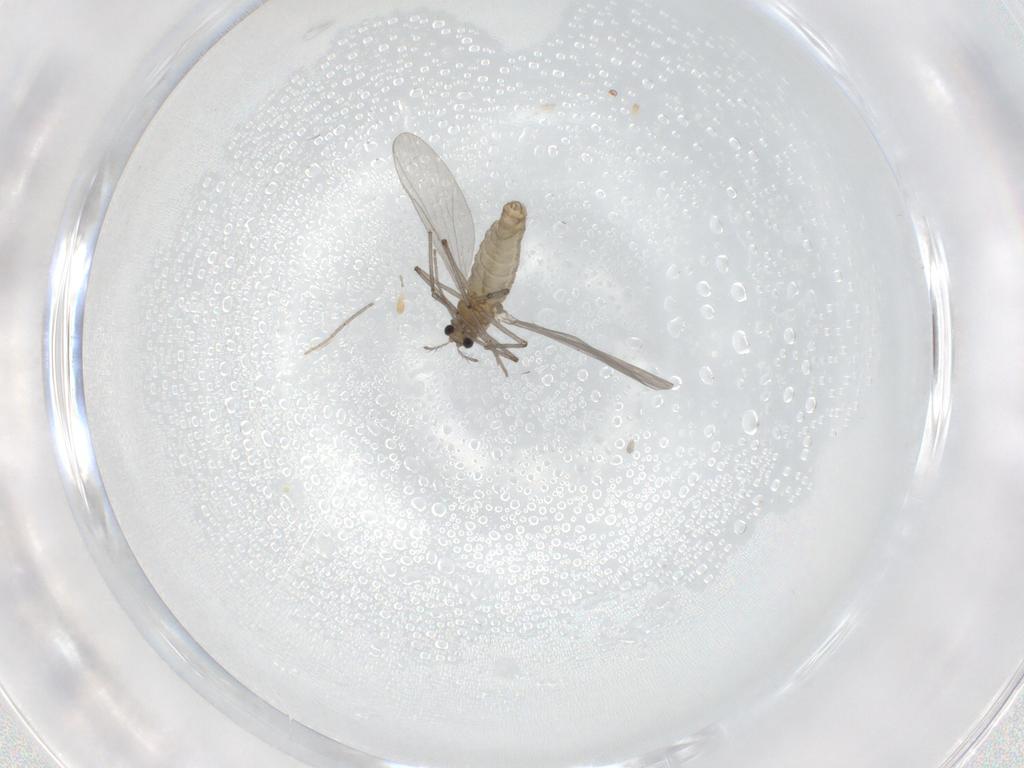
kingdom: Animalia
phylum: Arthropoda
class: Insecta
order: Diptera
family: Chironomidae
